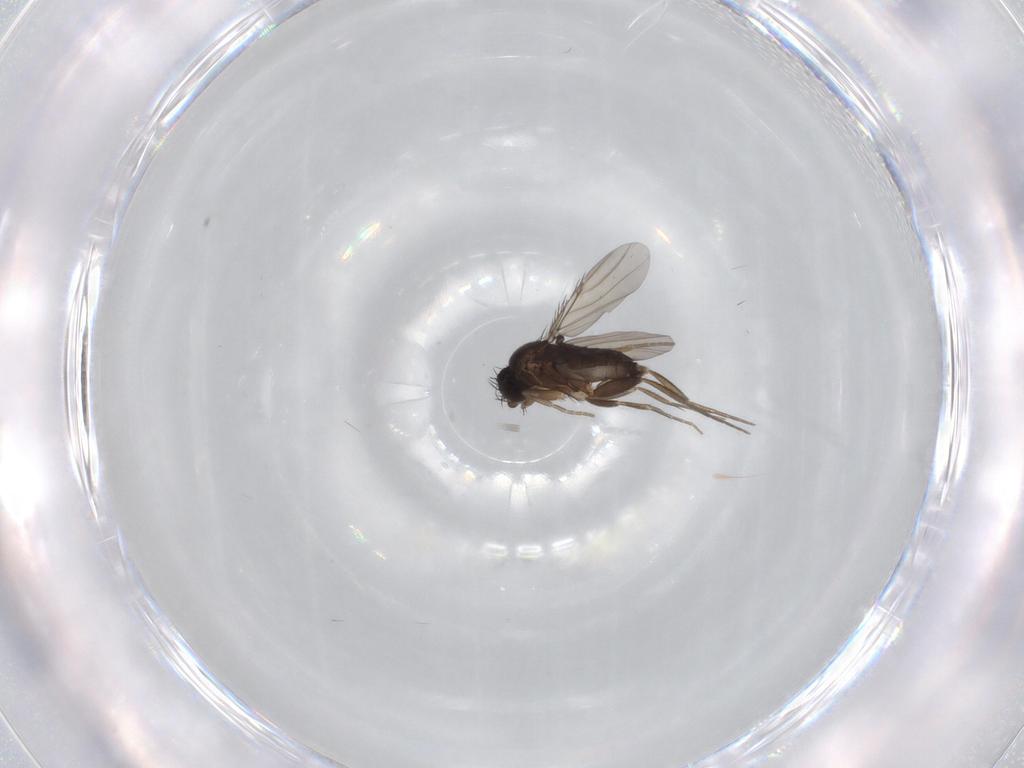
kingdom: Animalia
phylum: Arthropoda
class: Insecta
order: Diptera
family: Phoridae
